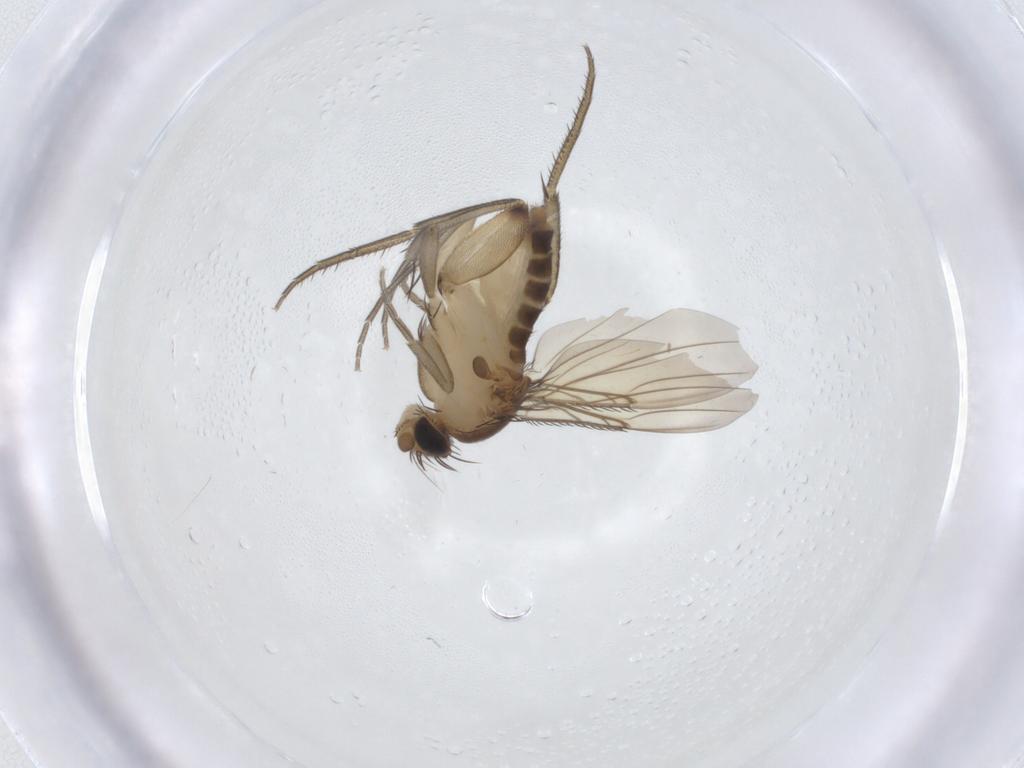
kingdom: Animalia
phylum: Arthropoda
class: Insecta
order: Diptera
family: Phoridae
